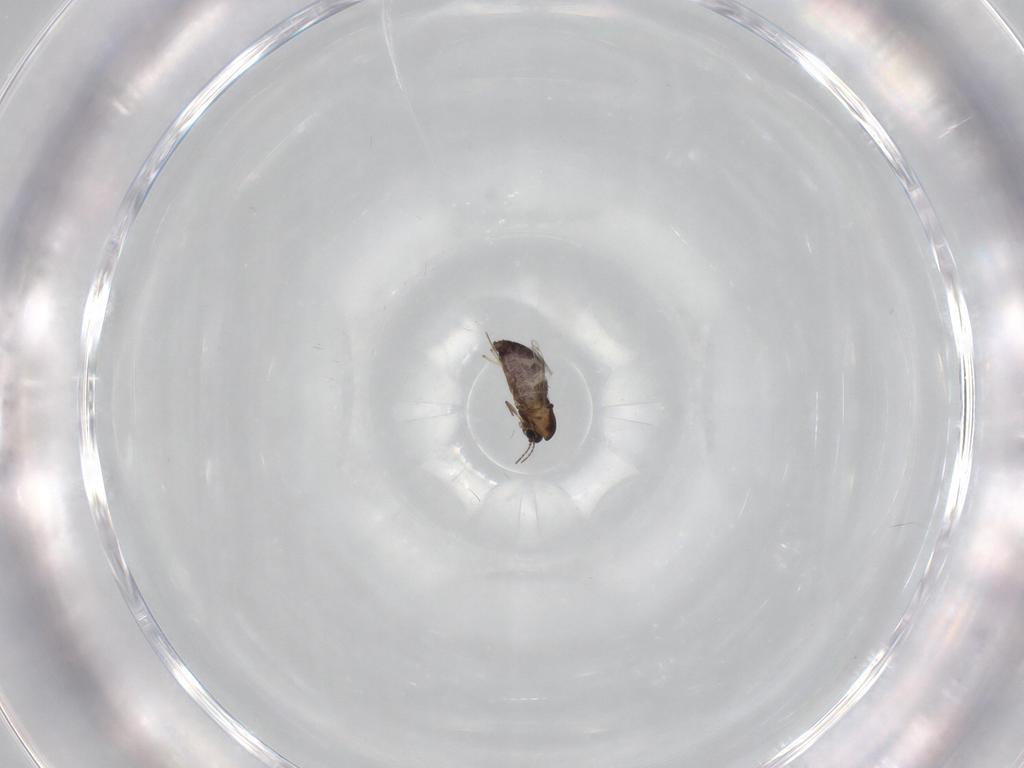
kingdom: Animalia
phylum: Arthropoda
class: Insecta
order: Diptera
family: Chironomidae
